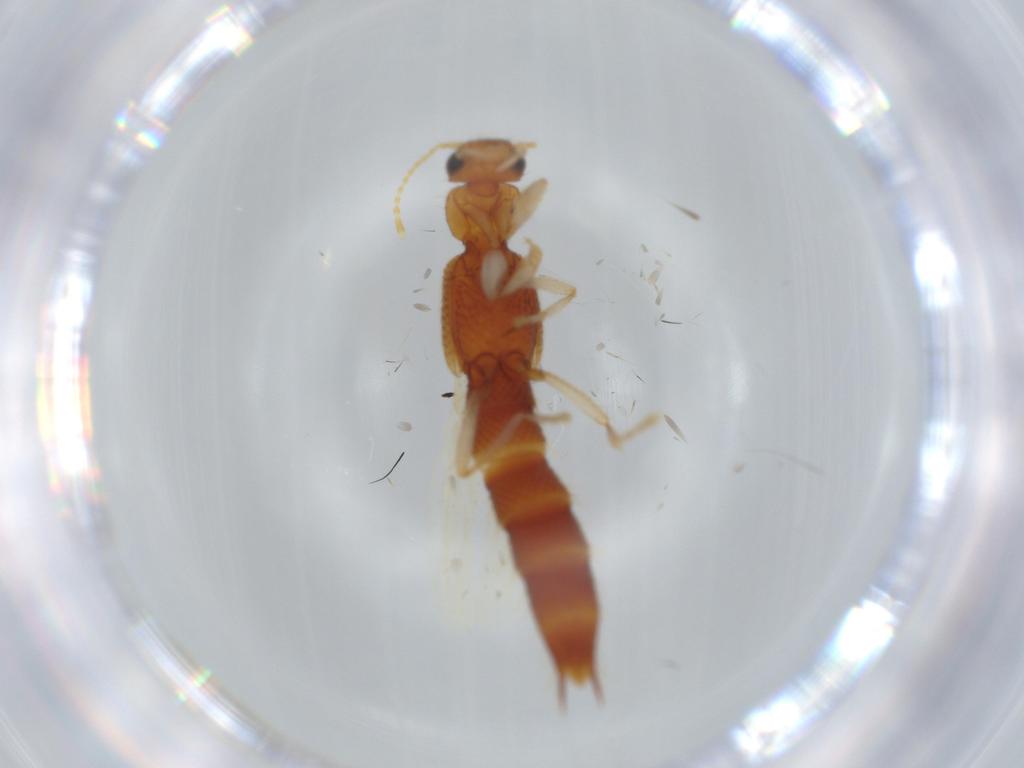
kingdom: Animalia
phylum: Arthropoda
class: Insecta
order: Coleoptera
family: Staphylinidae
